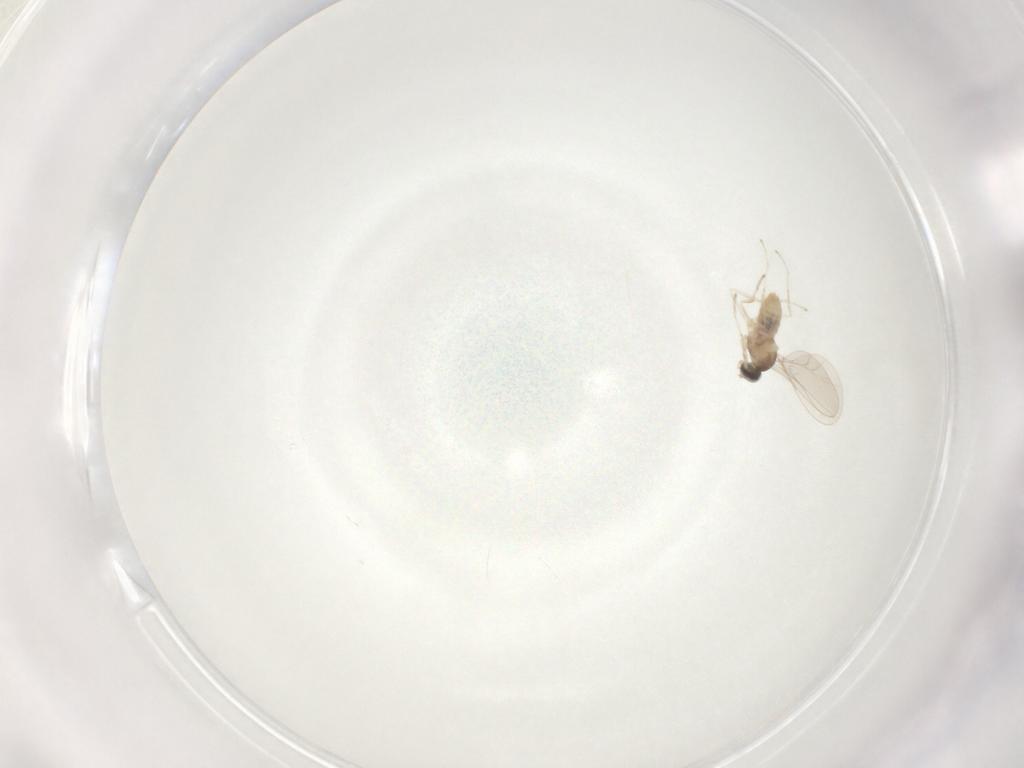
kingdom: Animalia
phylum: Arthropoda
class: Insecta
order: Diptera
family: Cecidomyiidae
